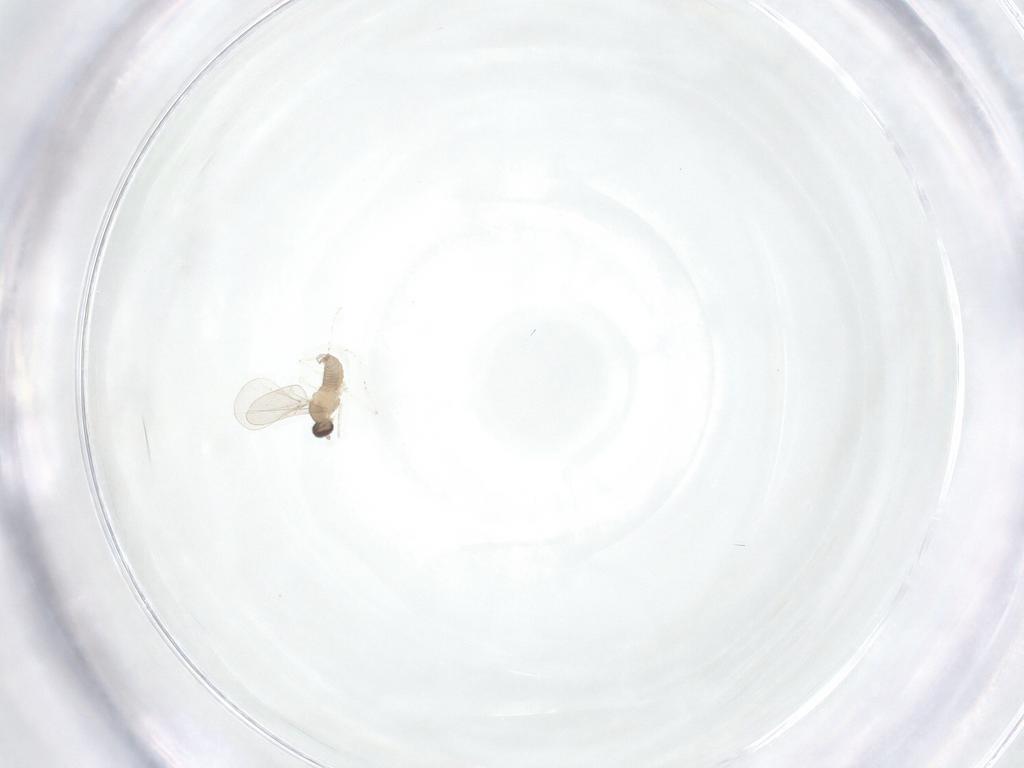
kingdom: Animalia
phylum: Arthropoda
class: Insecta
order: Diptera
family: Cecidomyiidae
